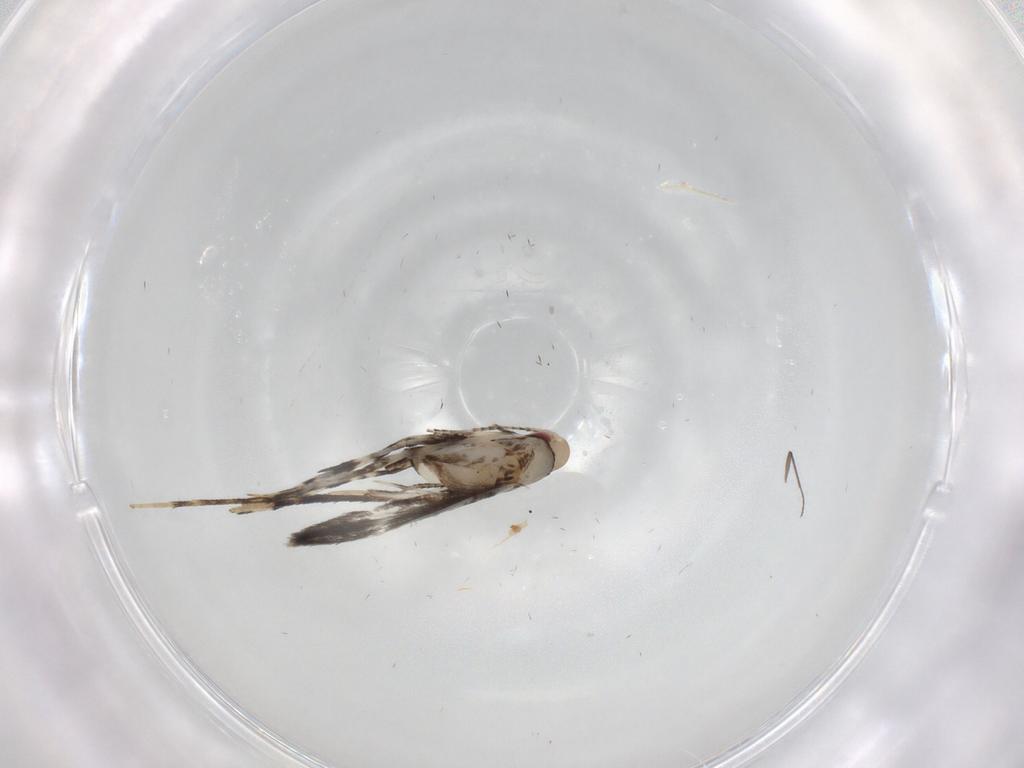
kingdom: Animalia
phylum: Arthropoda
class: Insecta
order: Lepidoptera
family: Gracillariidae
